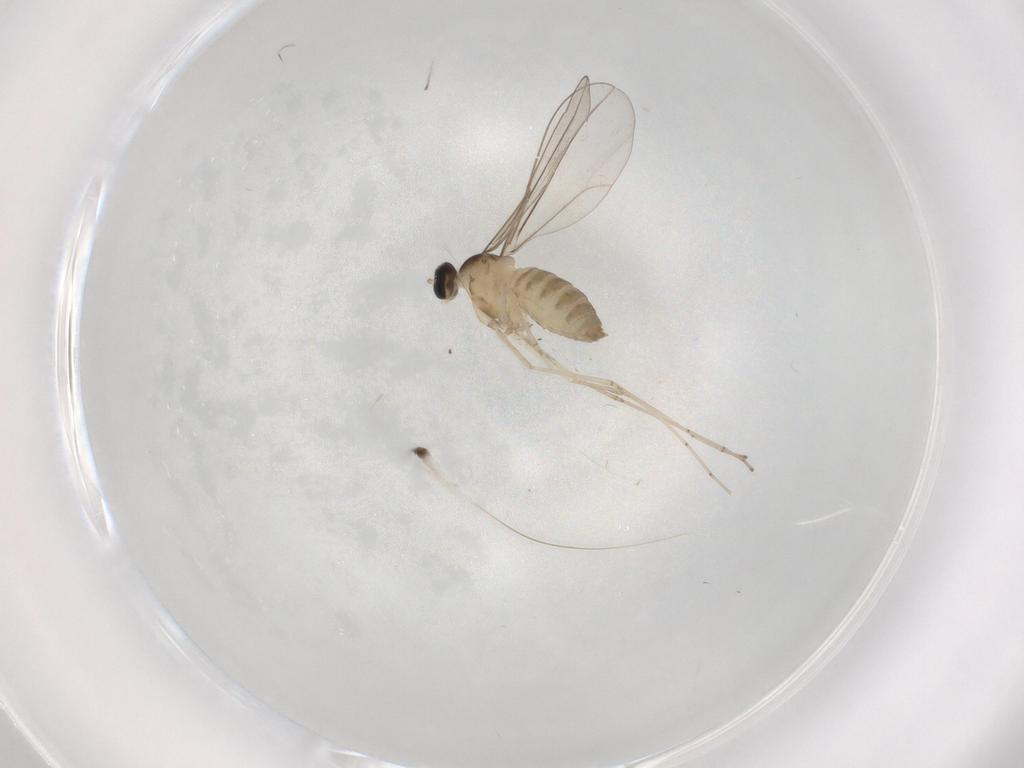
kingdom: Animalia
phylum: Arthropoda
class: Insecta
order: Diptera
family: Cecidomyiidae
